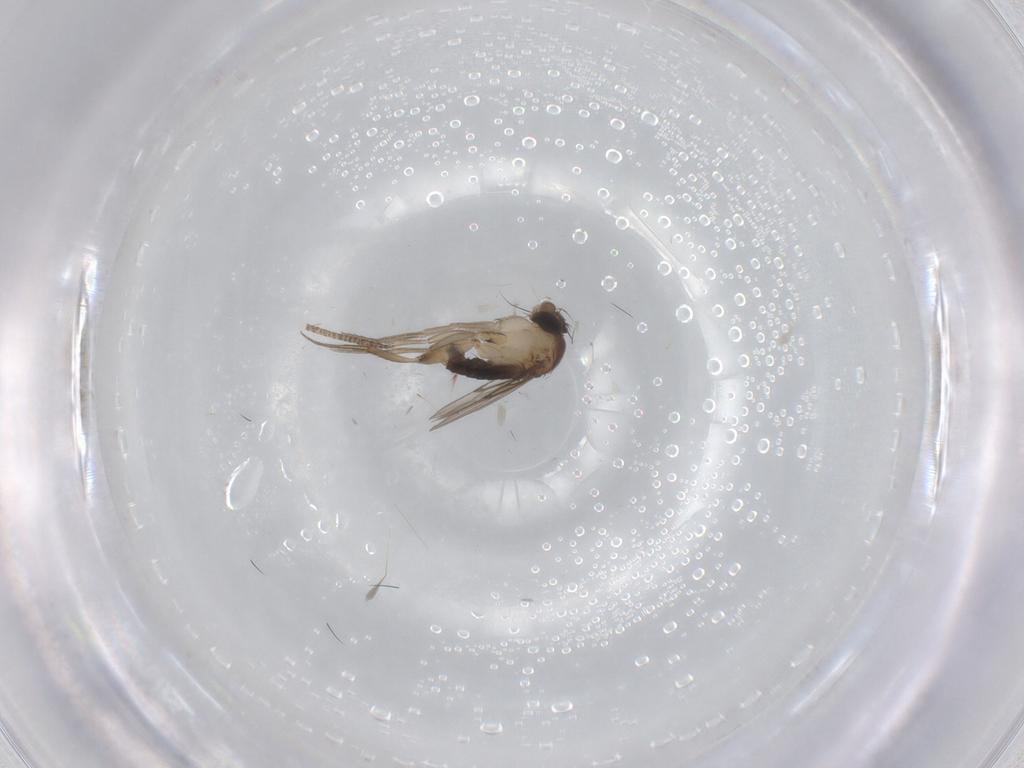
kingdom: Animalia
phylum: Arthropoda
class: Insecta
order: Diptera
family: Phoridae
